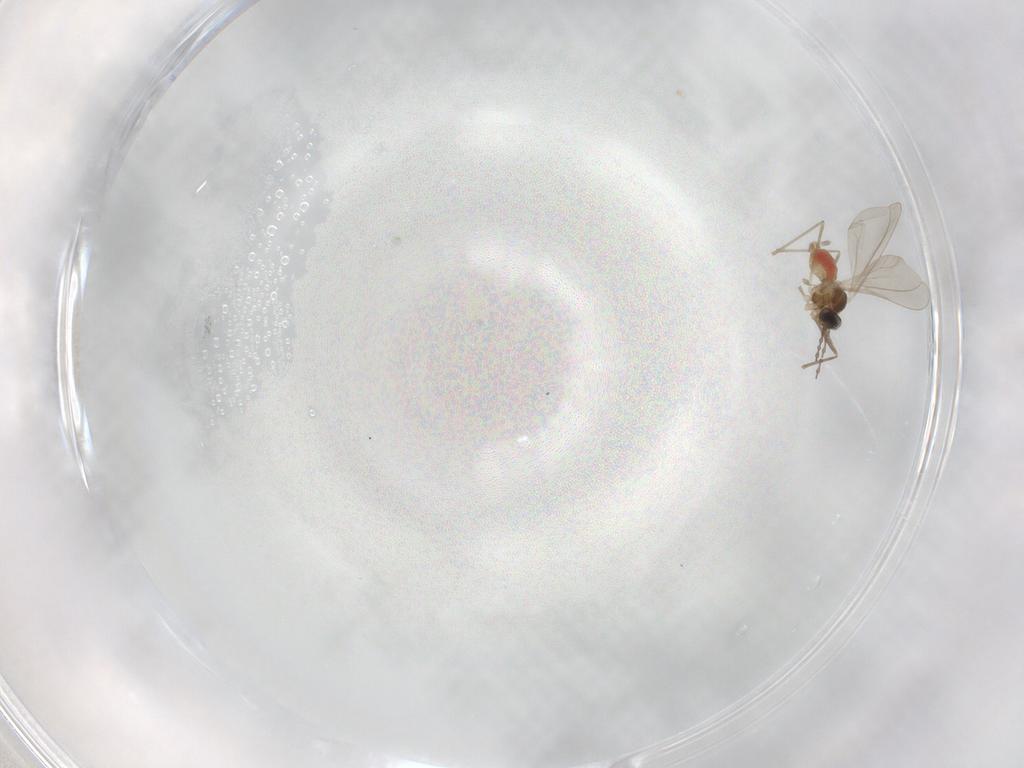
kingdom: Animalia
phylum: Arthropoda
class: Insecta
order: Diptera
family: Cecidomyiidae
